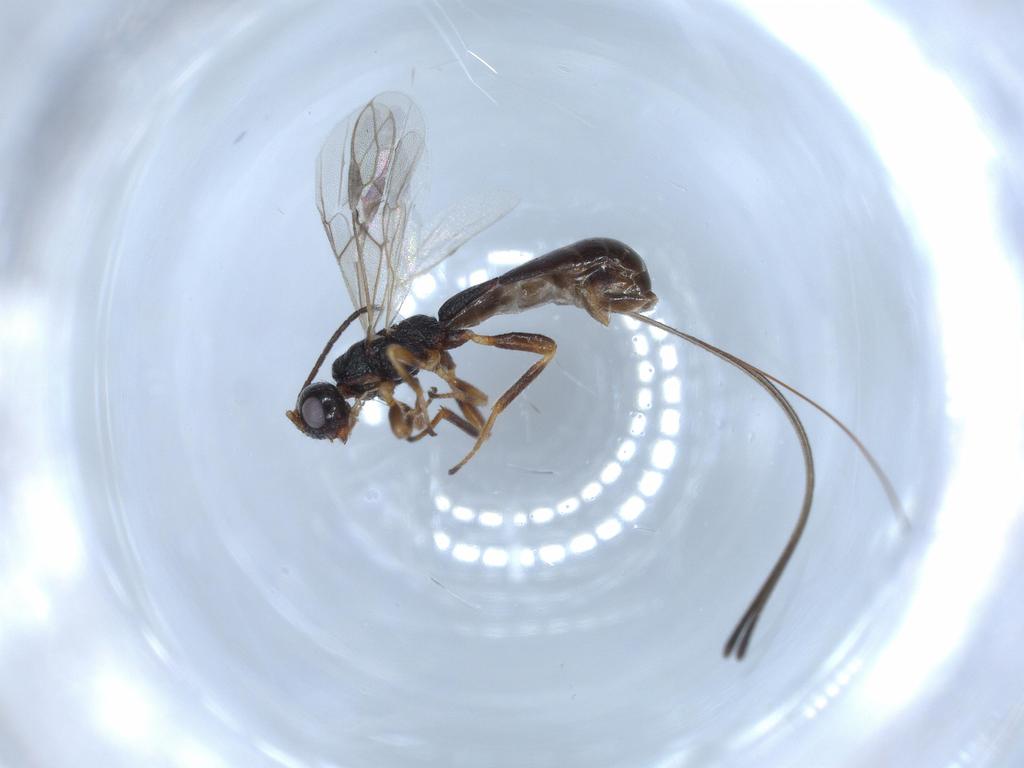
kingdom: Animalia
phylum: Arthropoda
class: Insecta
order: Hymenoptera
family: Braconidae
